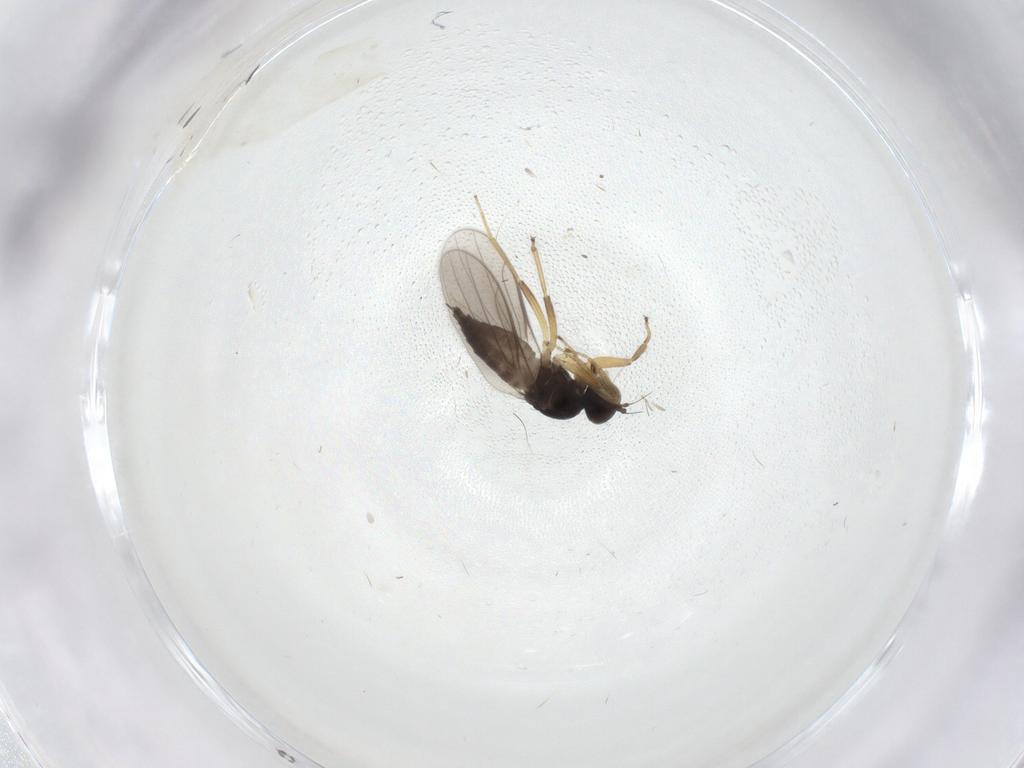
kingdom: Animalia
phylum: Arthropoda
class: Insecta
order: Diptera
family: Hybotidae
